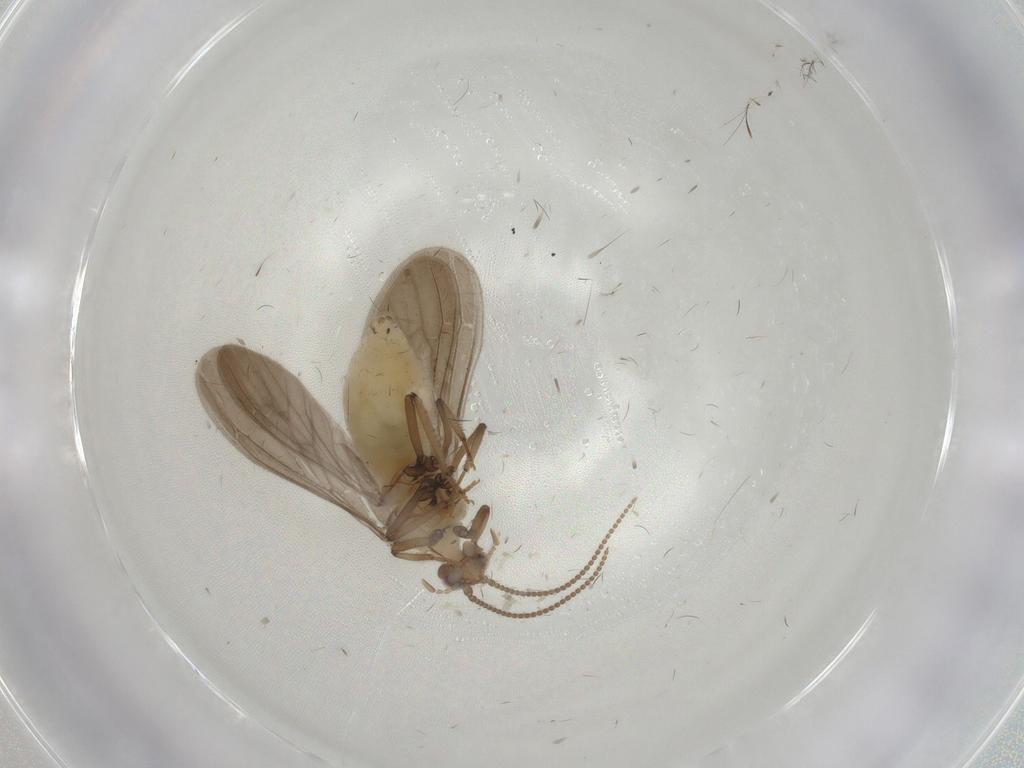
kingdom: Animalia
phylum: Arthropoda
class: Insecta
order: Neuroptera
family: Coniopterygidae
